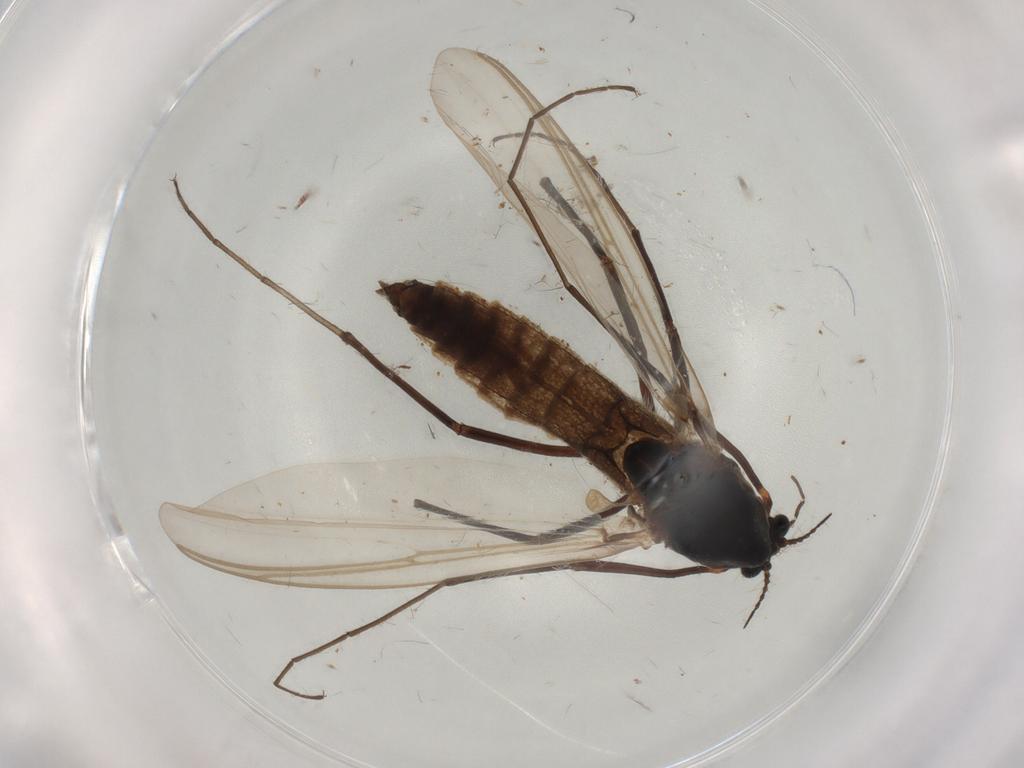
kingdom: Animalia
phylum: Arthropoda
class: Insecta
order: Diptera
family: Chironomidae
